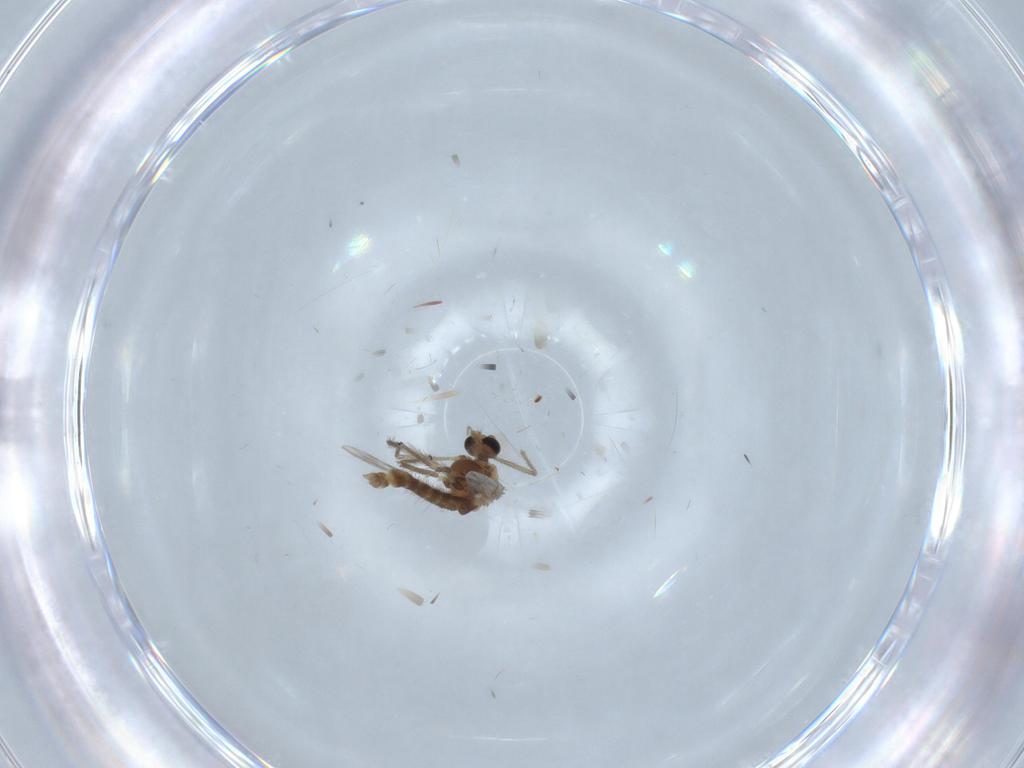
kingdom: Animalia
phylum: Arthropoda
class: Insecta
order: Diptera
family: Chironomidae
